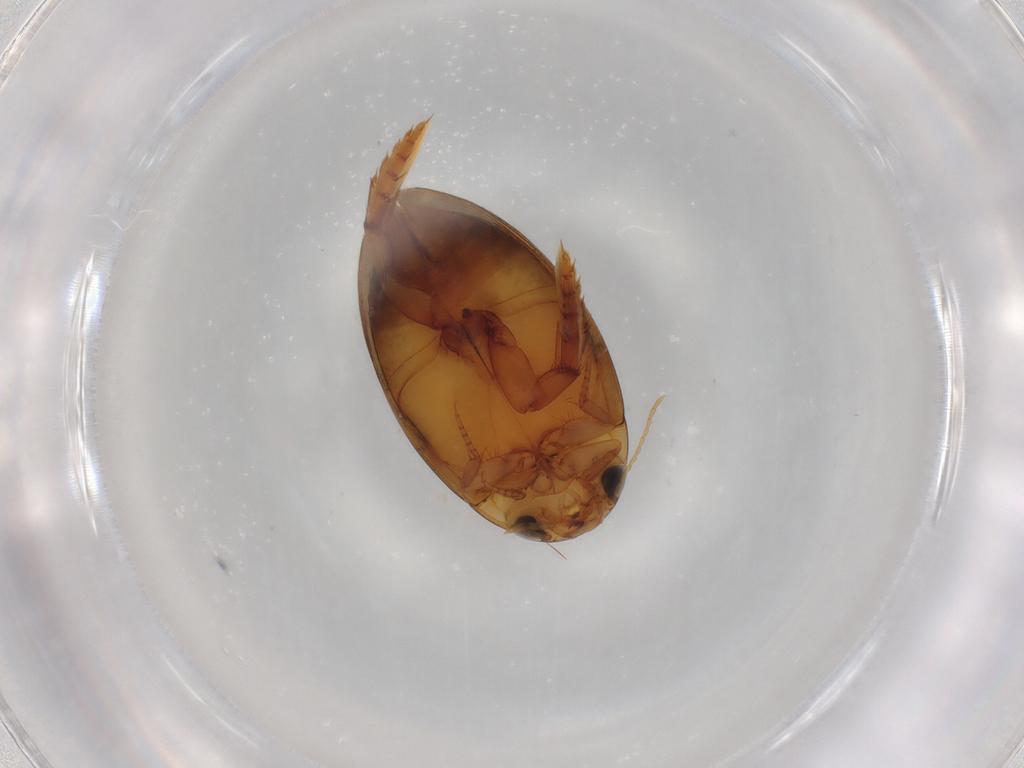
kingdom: Animalia
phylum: Arthropoda
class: Insecta
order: Coleoptera
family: Dytiscidae
